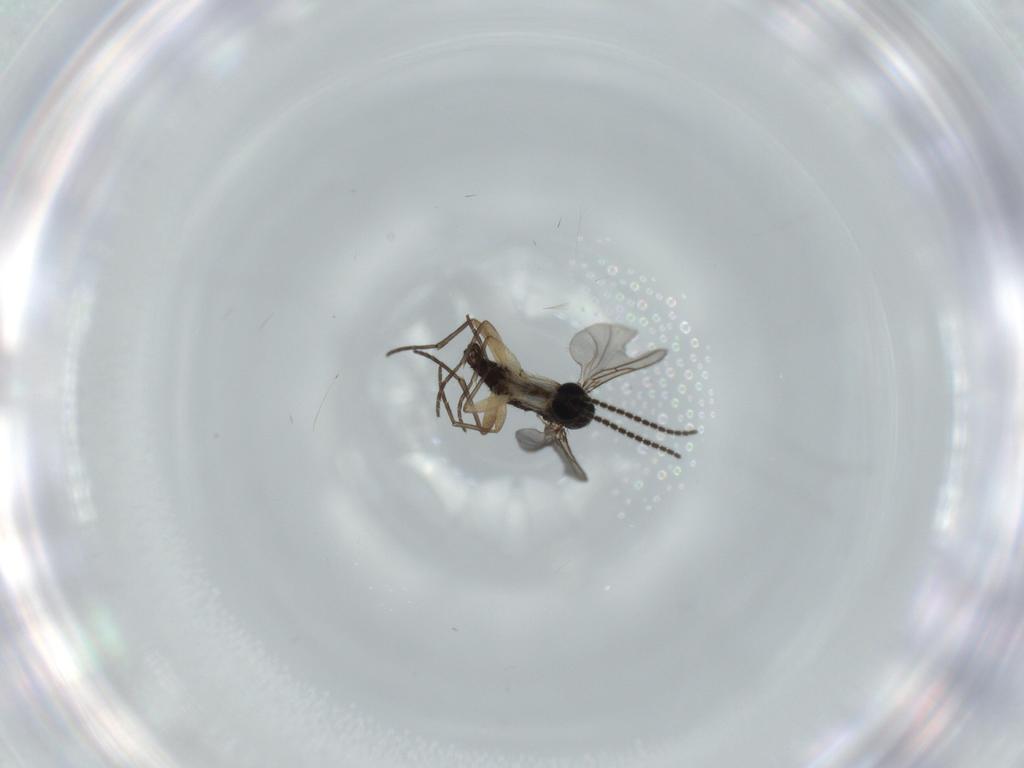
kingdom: Animalia
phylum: Arthropoda
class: Insecta
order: Diptera
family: Sciaridae
